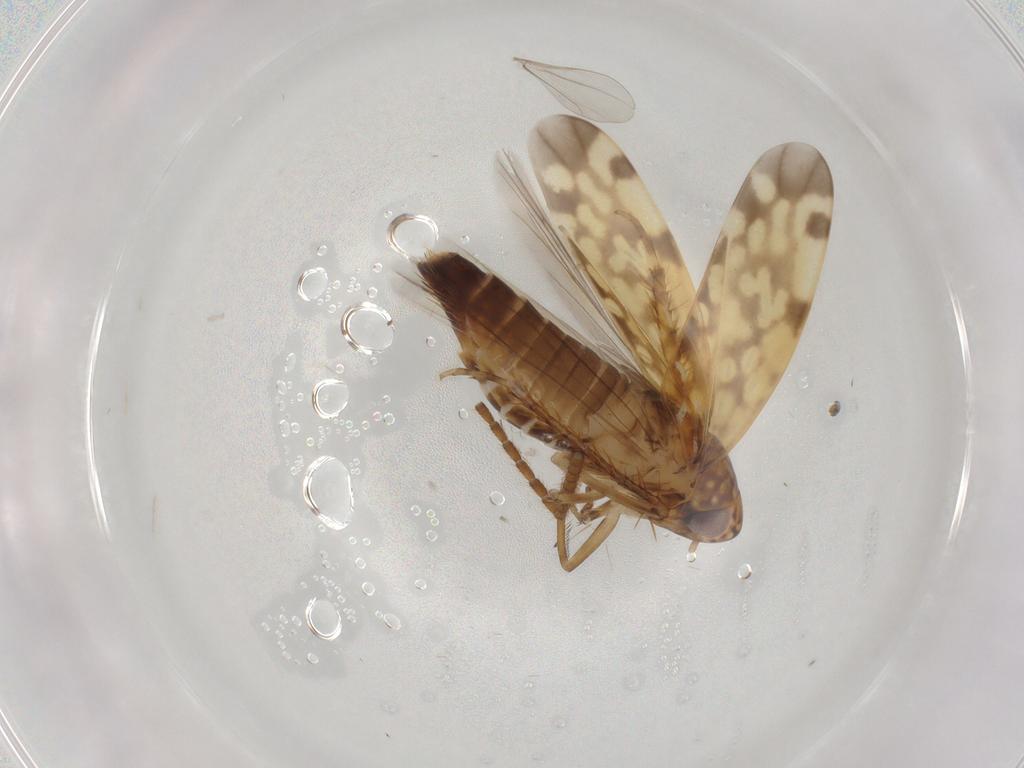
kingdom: Animalia
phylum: Arthropoda
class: Insecta
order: Hemiptera
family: Cicadellidae
